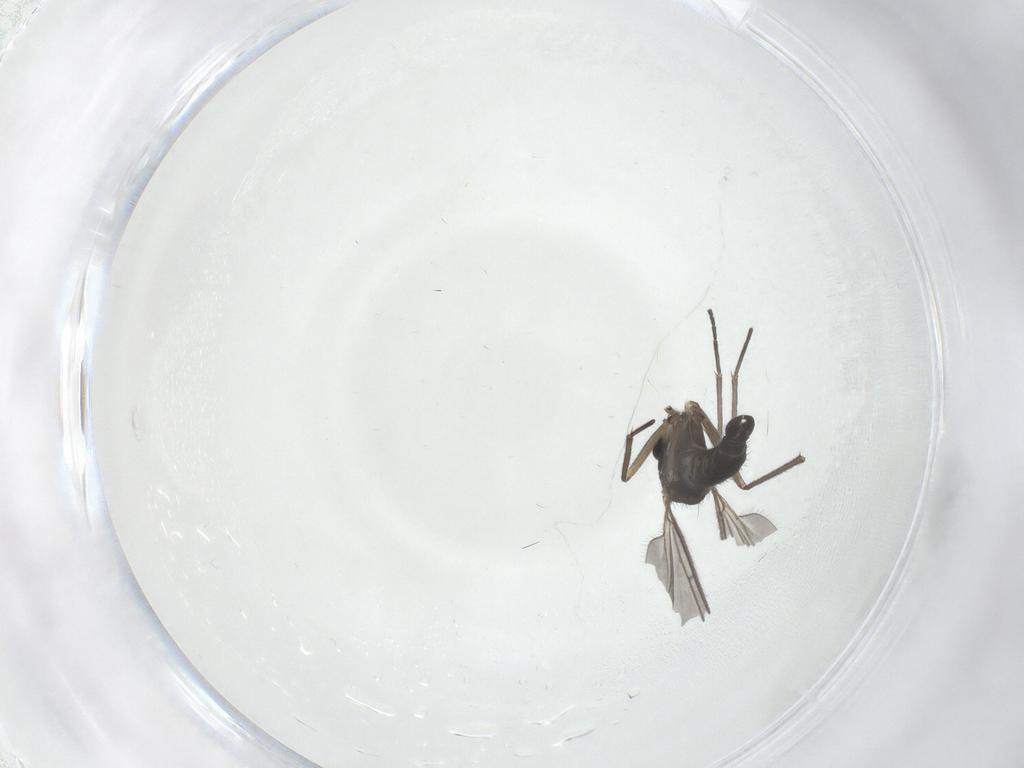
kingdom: Animalia
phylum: Arthropoda
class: Insecta
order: Diptera
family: Sciaridae
